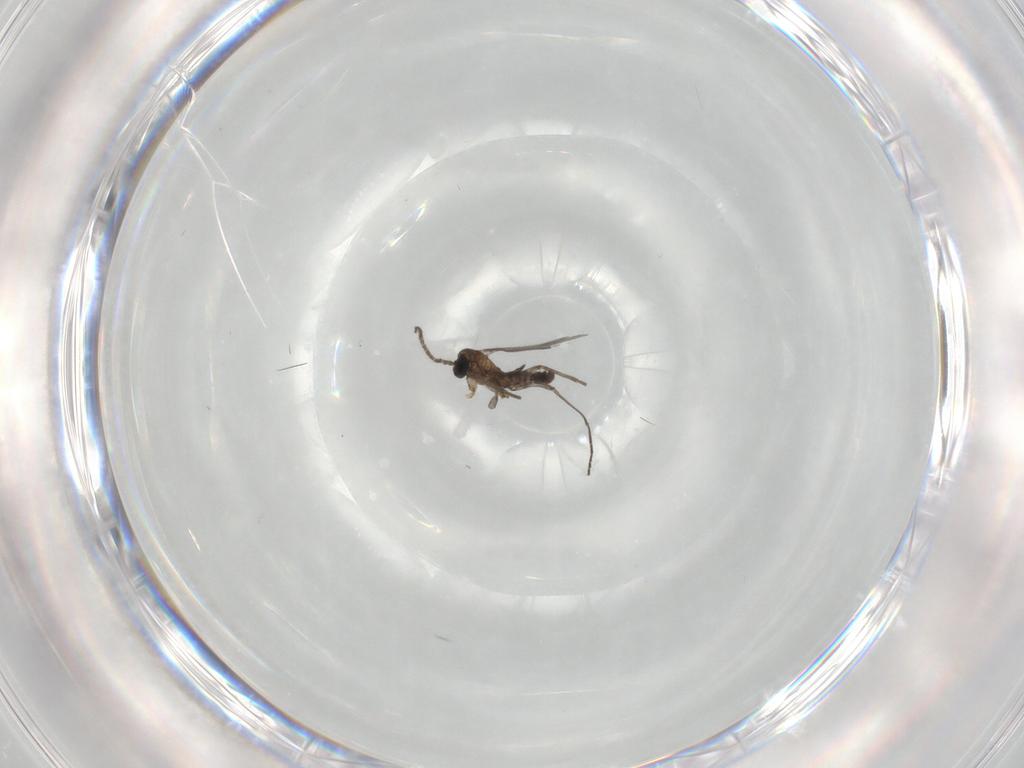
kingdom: Animalia
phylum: Arthropoda
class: Insecta
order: Diptera
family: Sciaridae
